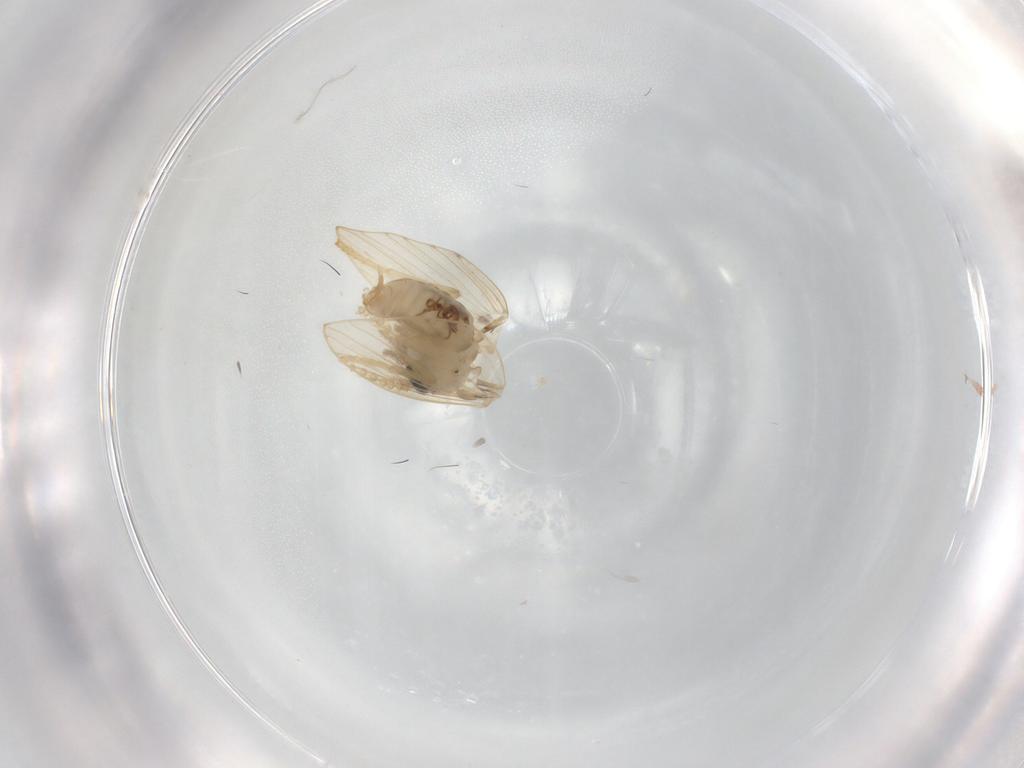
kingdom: Animalia
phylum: Arthropoda
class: Insecta
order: Diptera
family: Psychodidae
